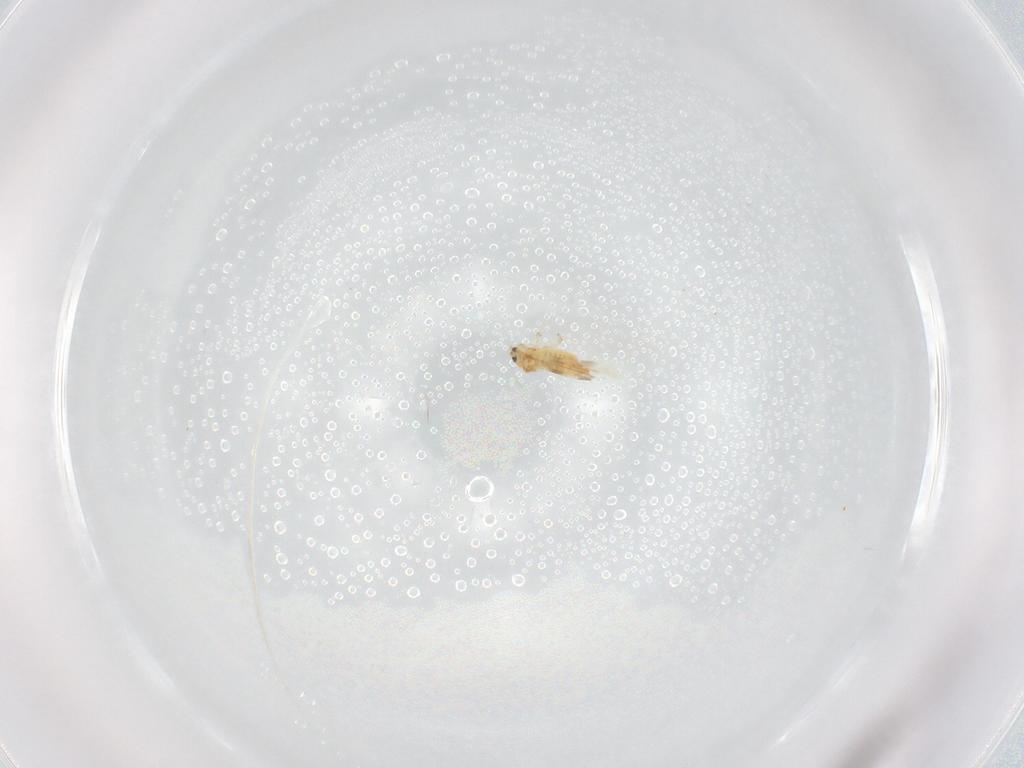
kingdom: Animalia
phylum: Arthropoda
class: Insecta
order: Thysanoptera
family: Thripidae
